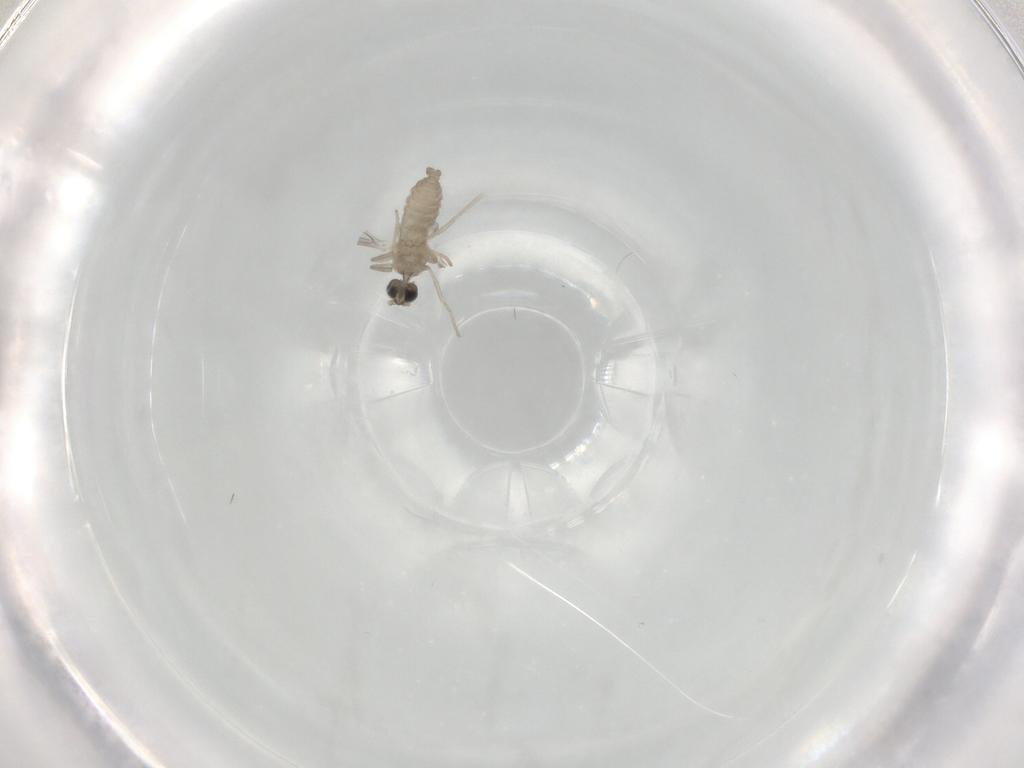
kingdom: Animalia
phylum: Arthropoda
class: Insecta
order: Diptera
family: Cecidomyiidae
